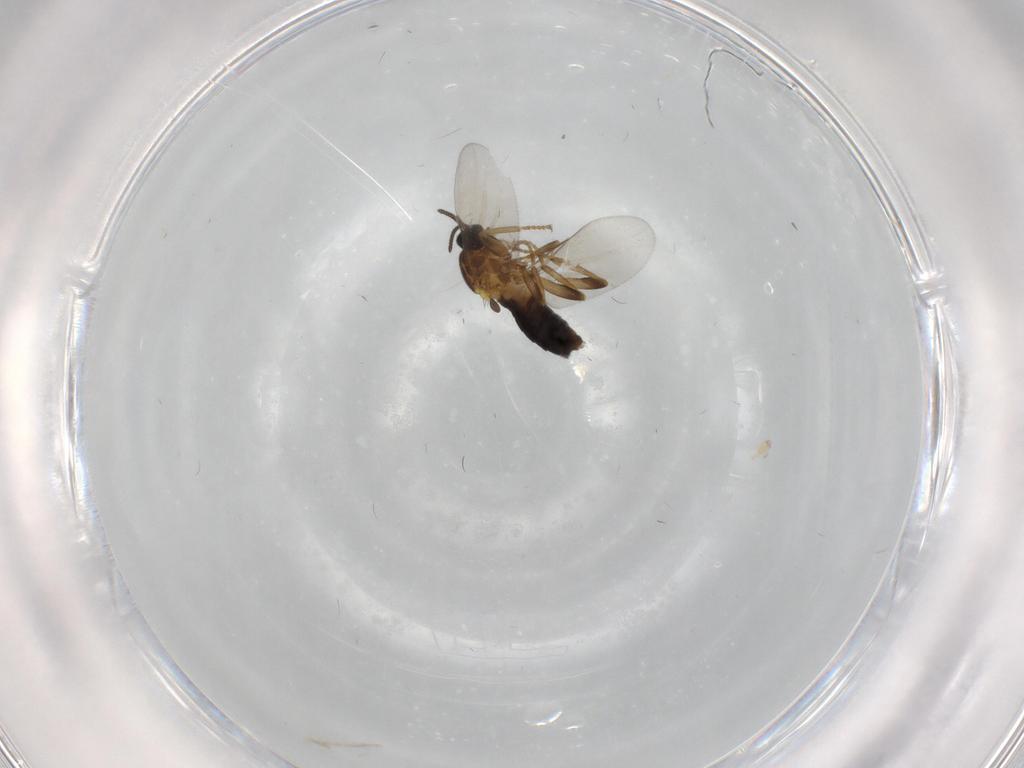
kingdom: Animalia
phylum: Arthropoda
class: Insecta
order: Diptera
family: Scatopsidae
